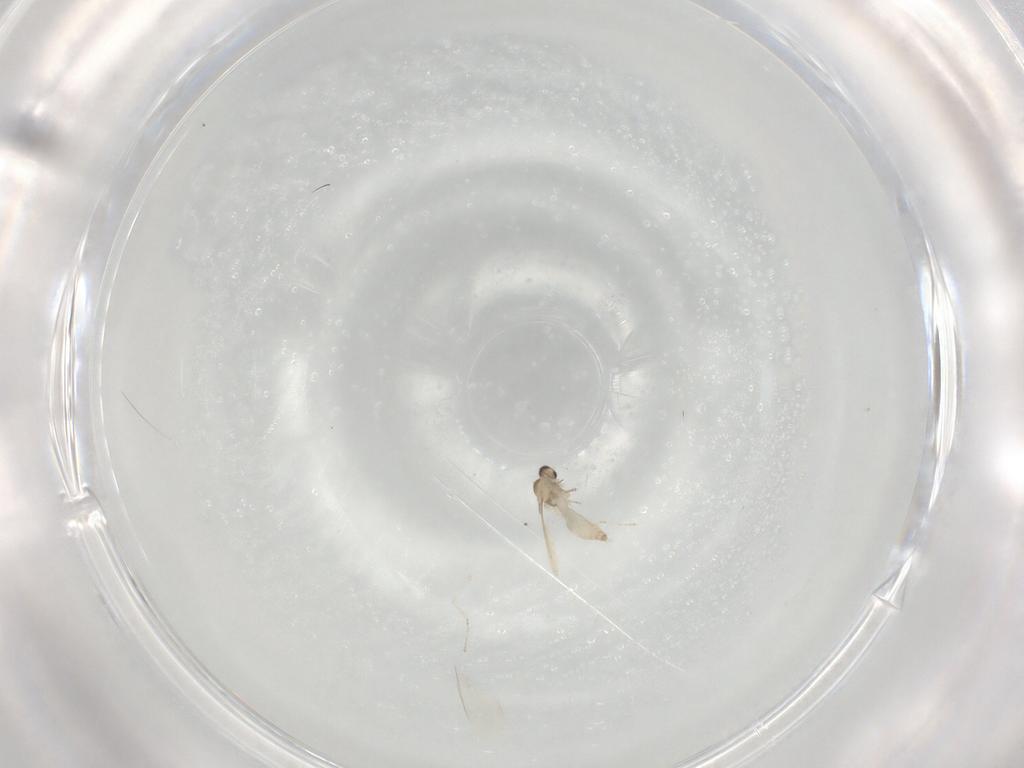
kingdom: Animalia
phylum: Arthropoda
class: Insecta
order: Diptera
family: Cecidomyiidae
